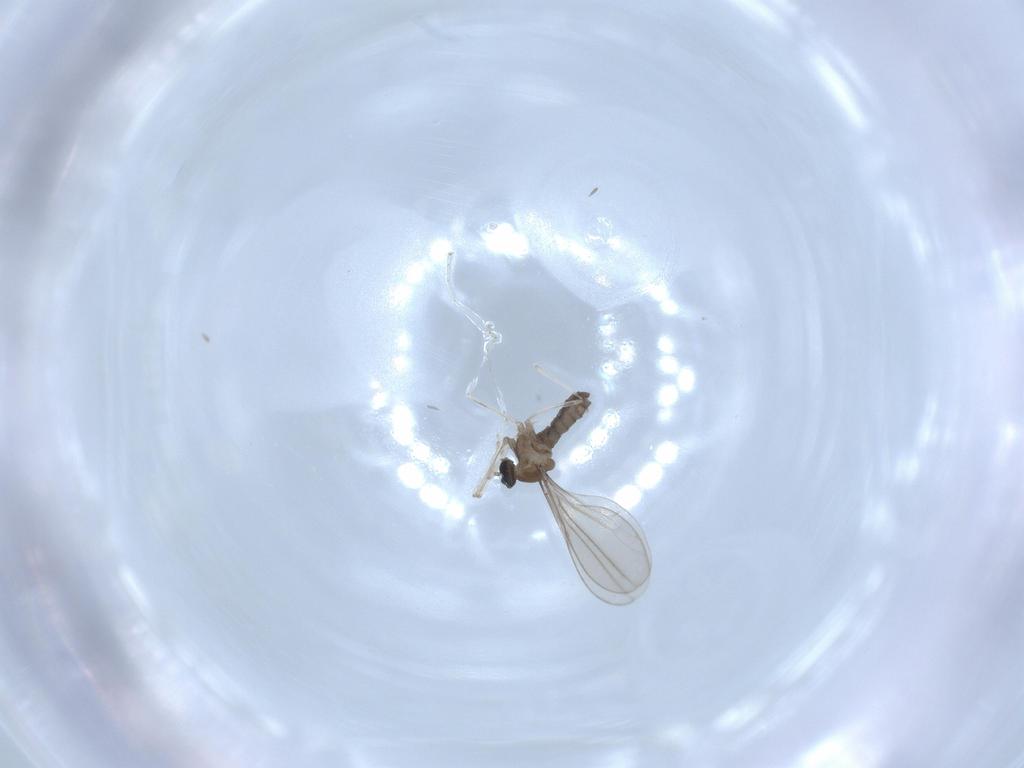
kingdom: Animalia
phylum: Arthropoda
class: Insecta
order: Diptera
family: Cecidomyiidae
